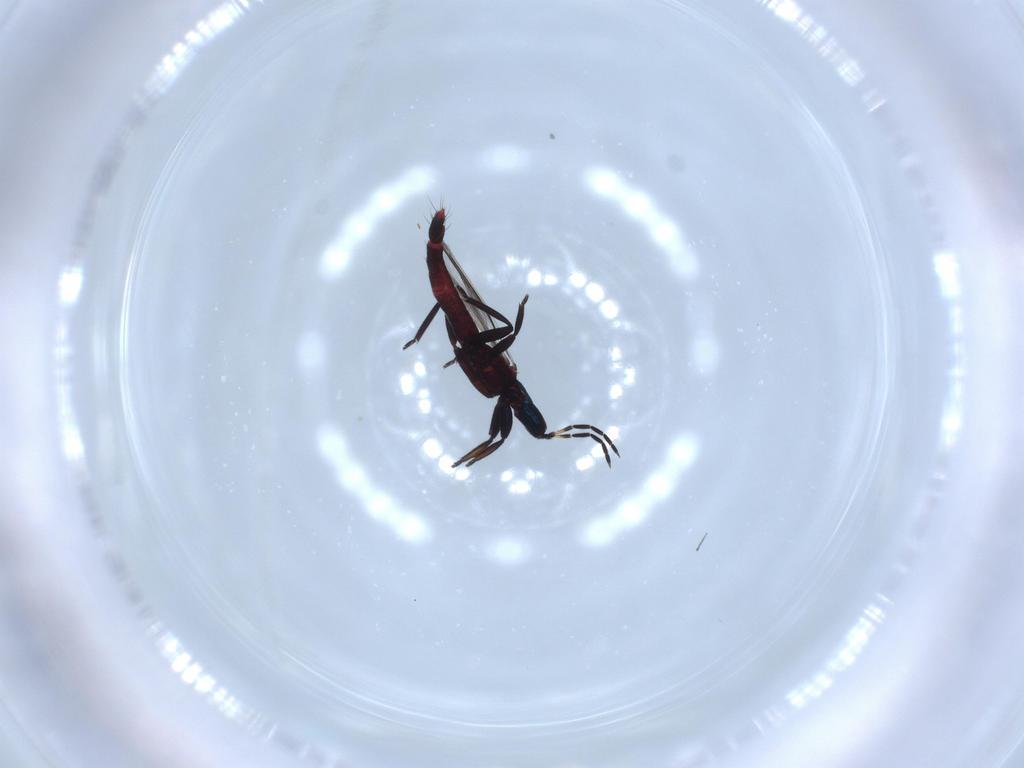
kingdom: Animalia
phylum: Arthropoda
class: Insecta
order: Thysanoptera
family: Aeolothripidae
